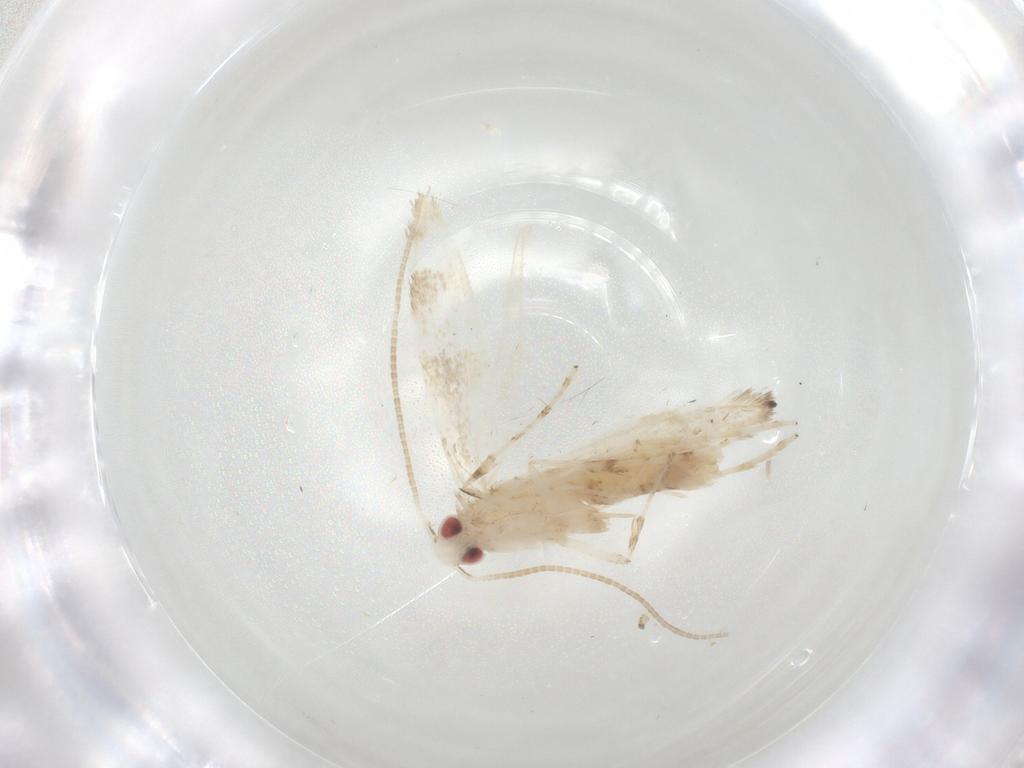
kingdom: Animalia
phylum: Arthropoda
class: Insecta
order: Lepidoptera
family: Gracillariidae
